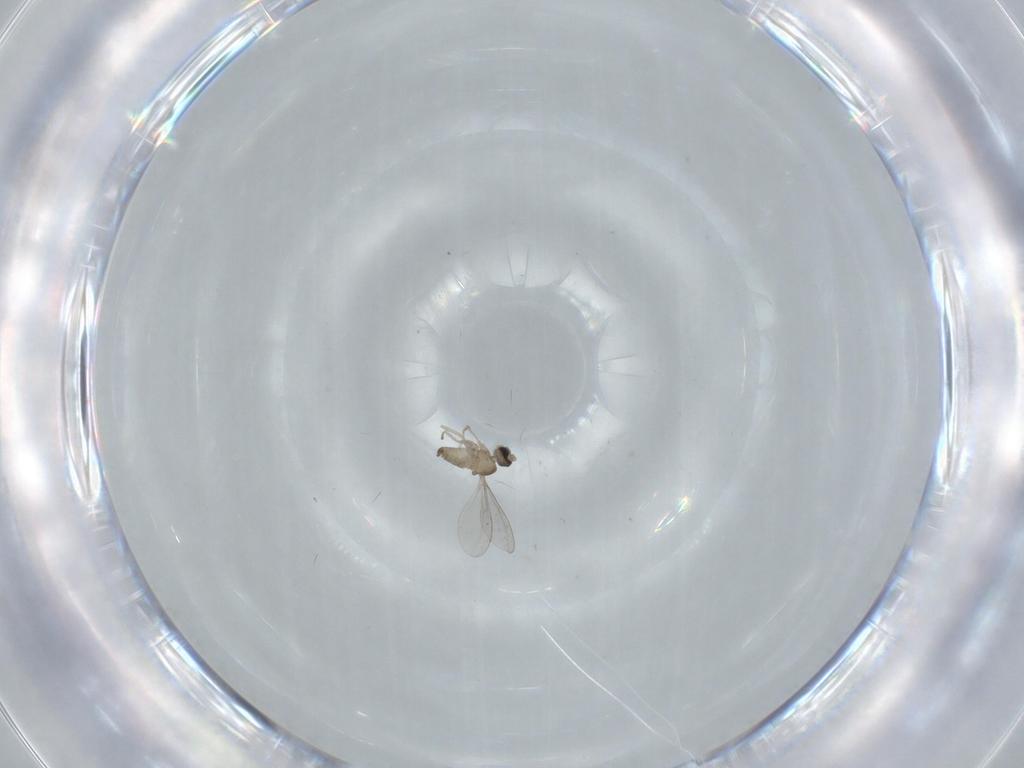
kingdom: Animalia
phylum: Arthropoda
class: Insecta
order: Diptera
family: Cecidomyiidae
